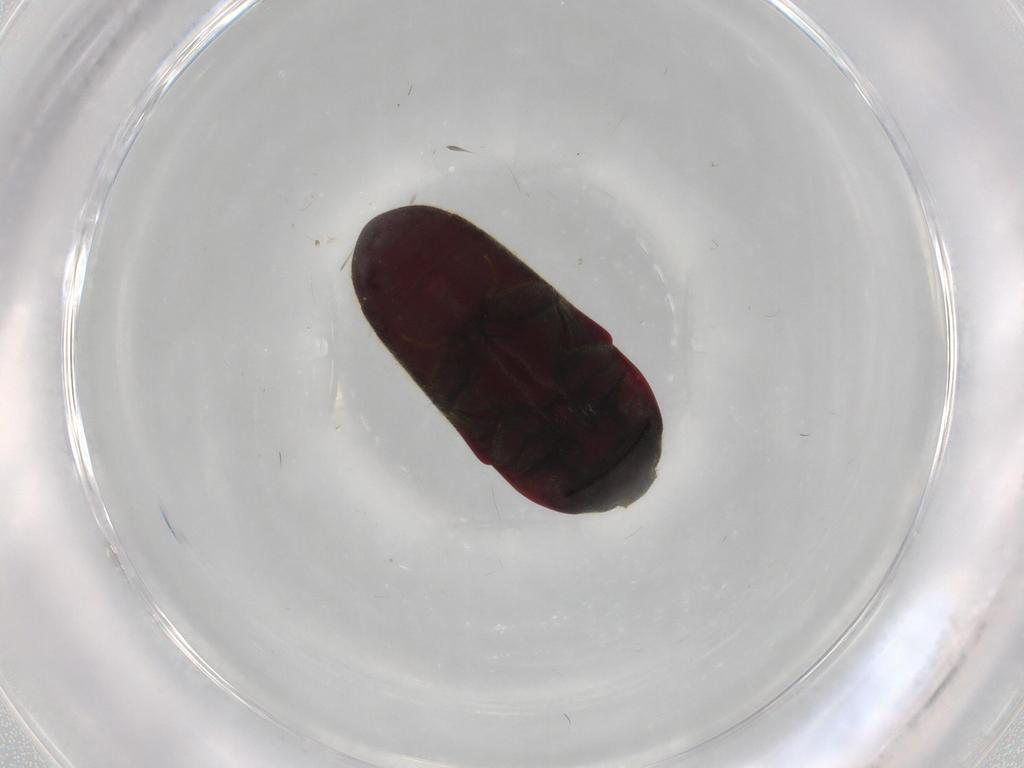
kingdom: Animalia
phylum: Arthropoda
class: Insecta
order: Coleoptera
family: Throscidae
